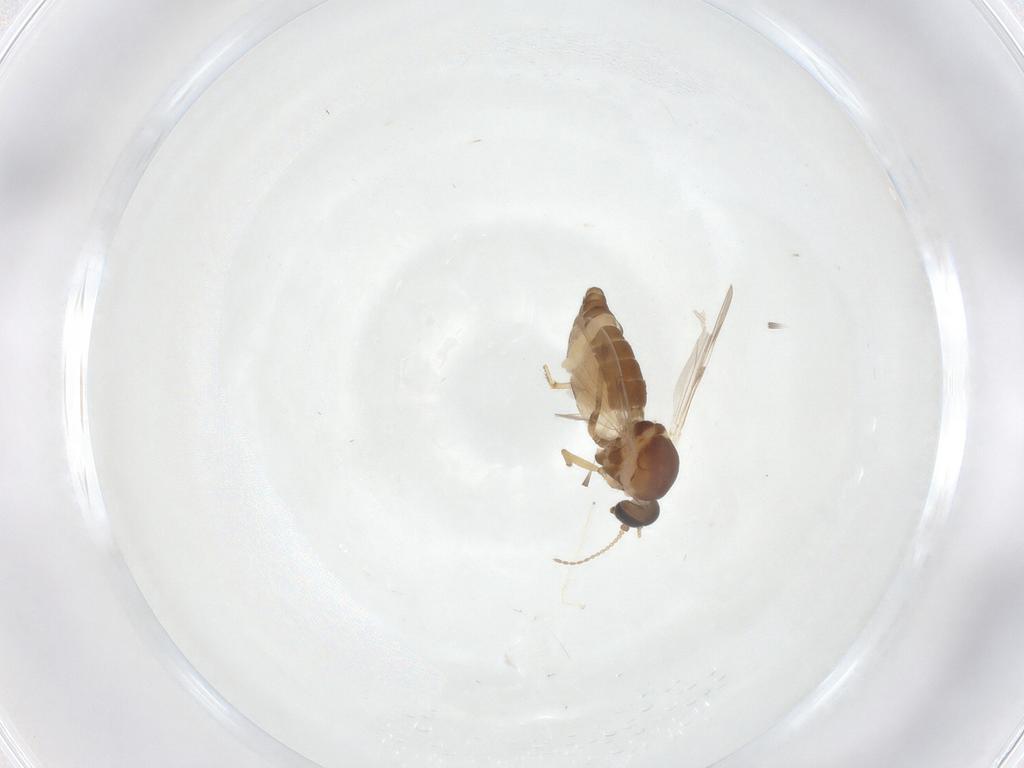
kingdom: Animalia
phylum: Arthropoda
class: Insecta
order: Diptera
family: Ceratopogonidae
